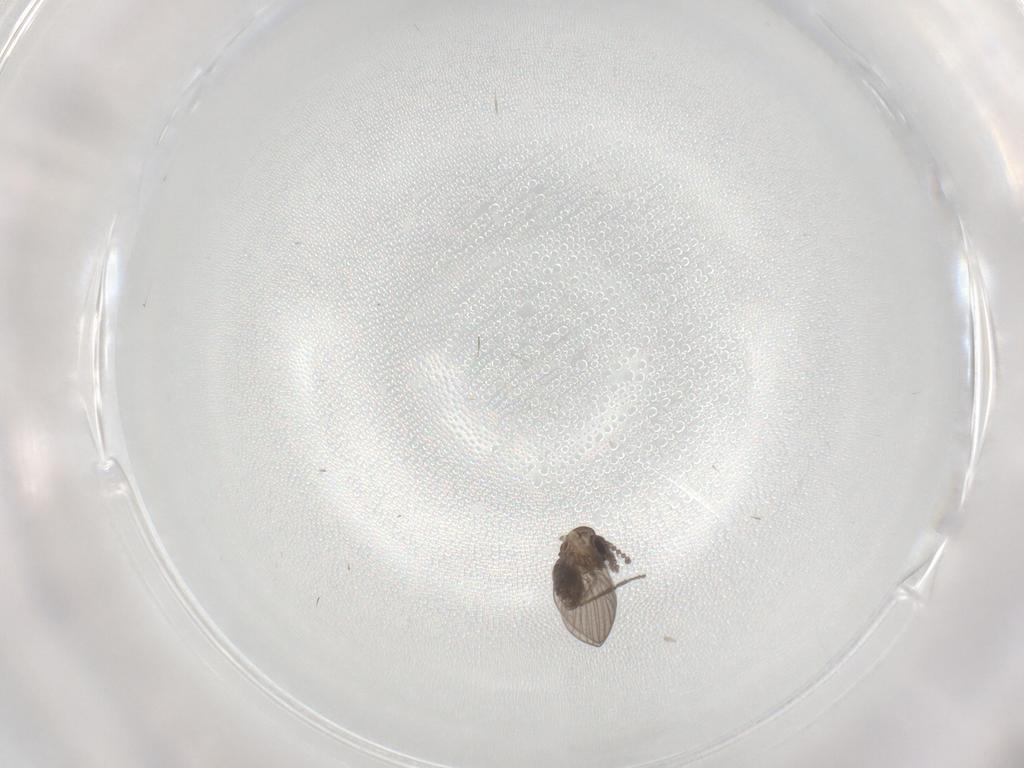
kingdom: Animalia
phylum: Arthropoda
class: Insecta
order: Diptera
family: Psychodidae
